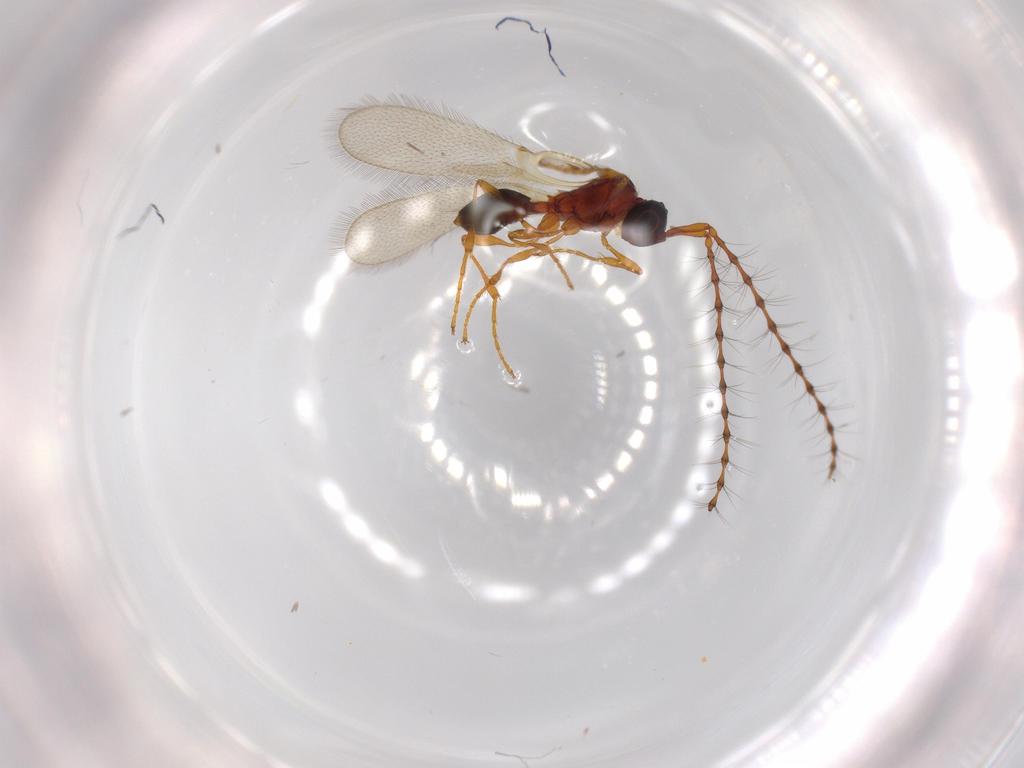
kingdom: Animalia
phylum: Arthropoda
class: Insecta
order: Hymenoptera
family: Diapriidae
